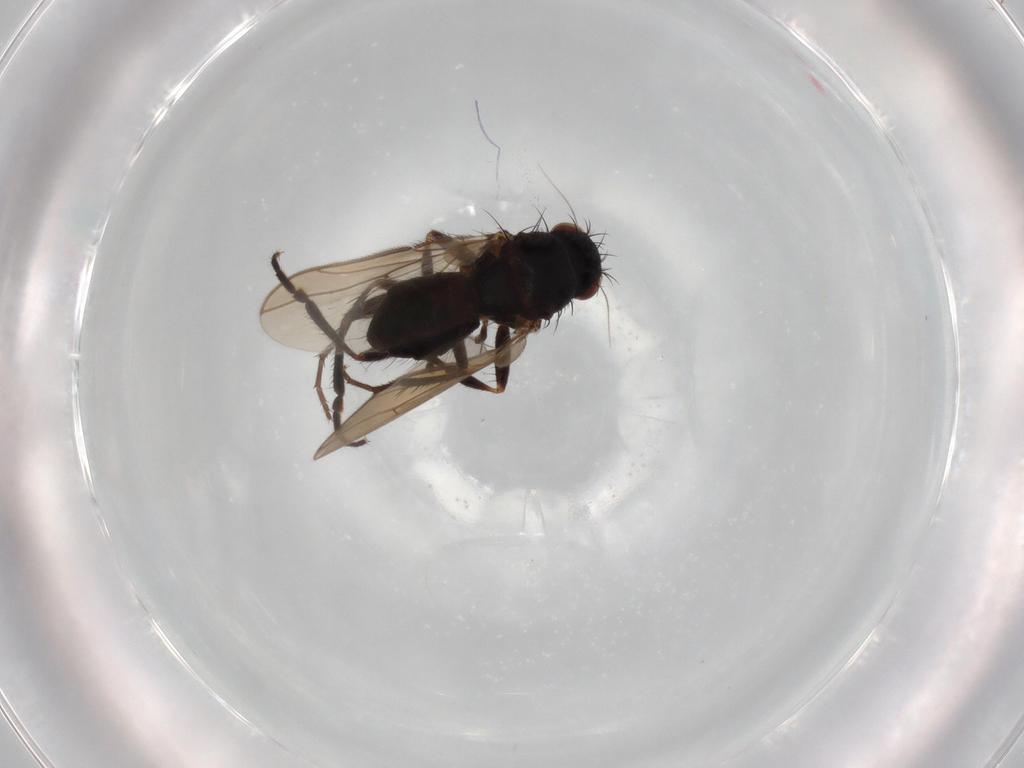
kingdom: Animalia
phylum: Arthropoda
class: Insecta
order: Diptera
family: Sphaeroceridae
